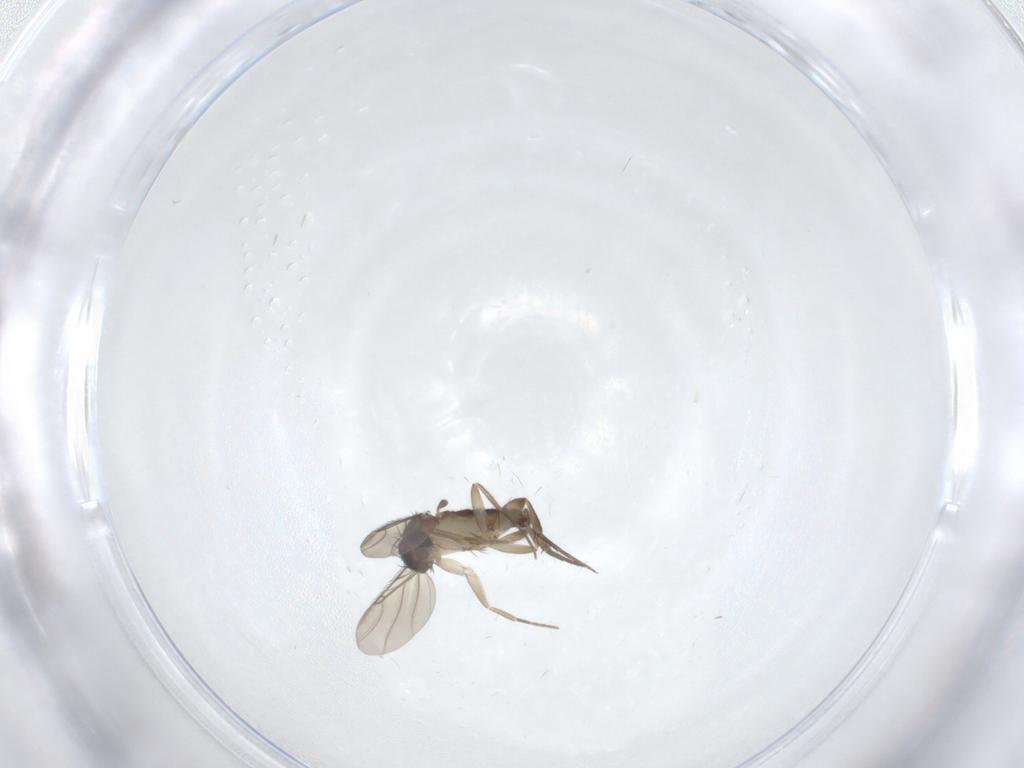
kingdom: Animalia
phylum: Arthropoda
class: Insecta
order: Diptera
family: Phoridae
